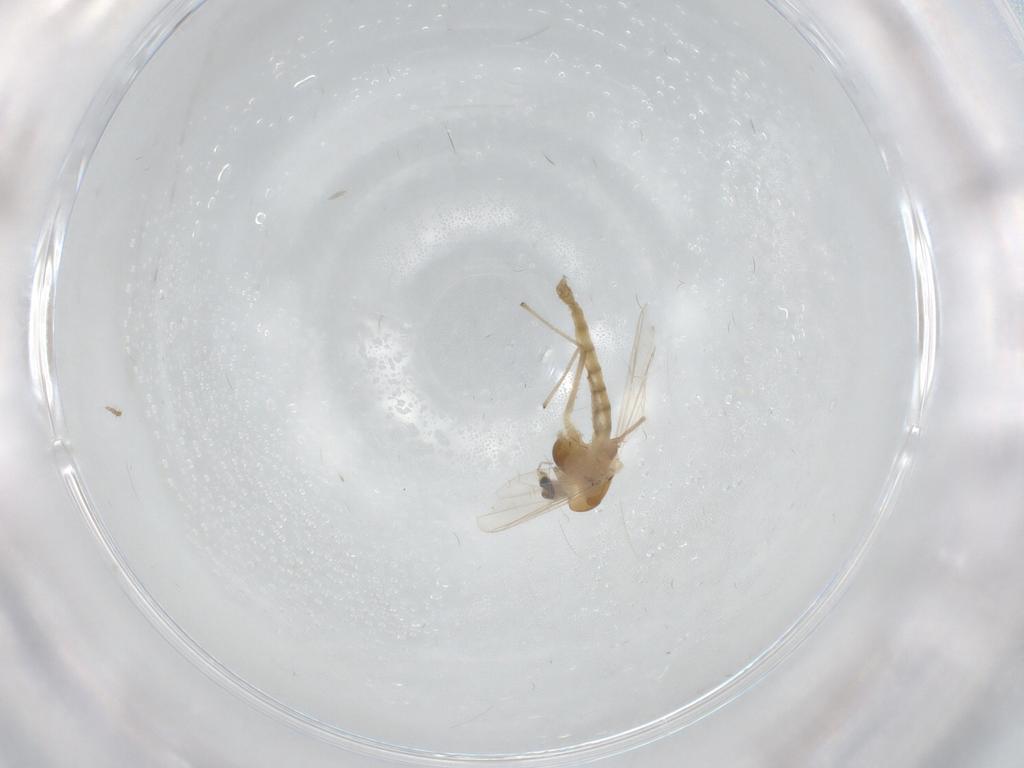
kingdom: Animalia
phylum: Arthropoda
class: Insecta
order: Diptera
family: Chironomidae
